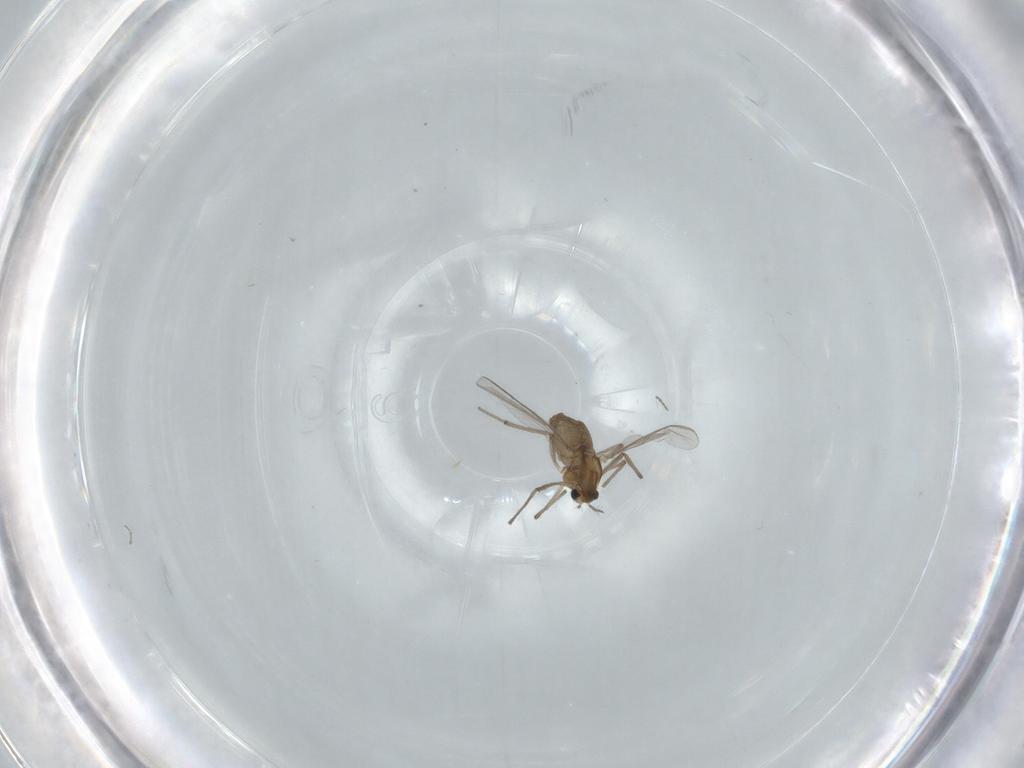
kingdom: Animalia
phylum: Arthropoda
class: Insecta
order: Diptera
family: Chironomidae
